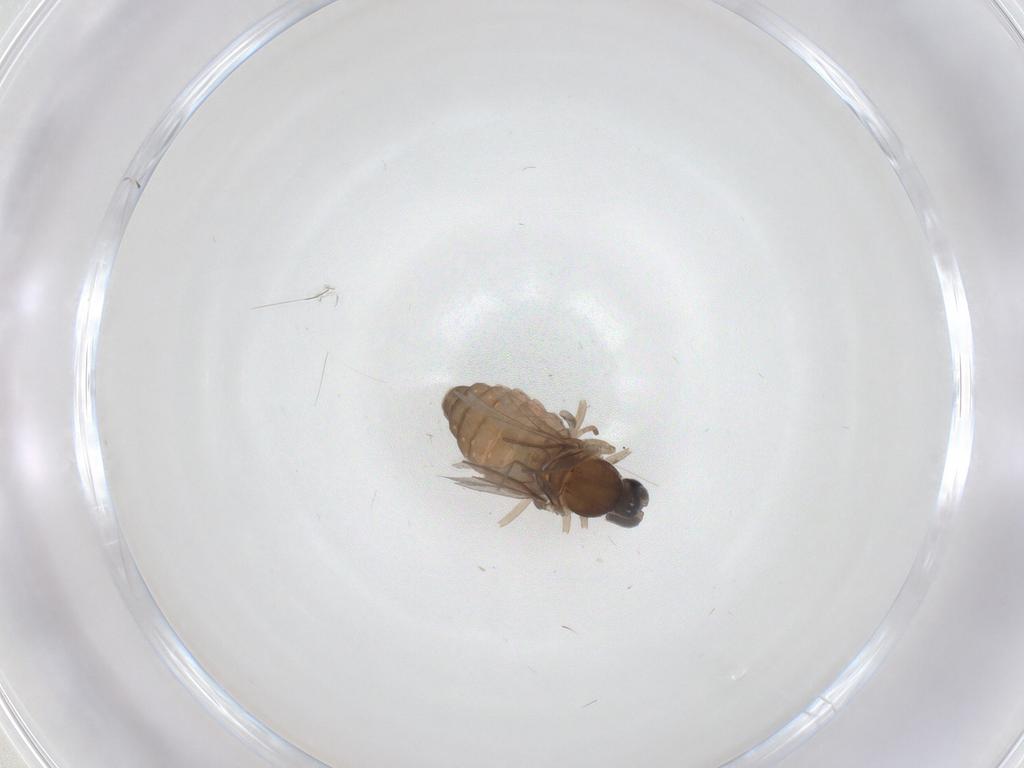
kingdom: Animalia
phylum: Arthropoda
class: Insecta
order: Diptera
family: Cecidomyiidae
